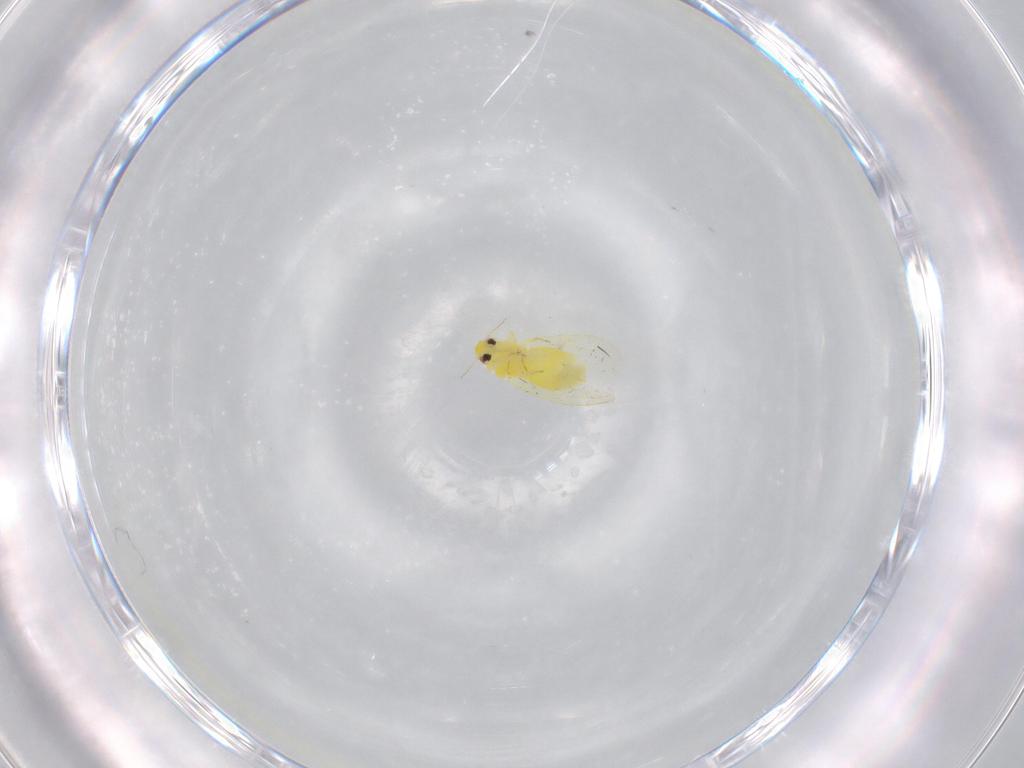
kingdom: Animalia
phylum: Arthropoda
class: Insecta
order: Hemiptera
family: Aleyrodidae
